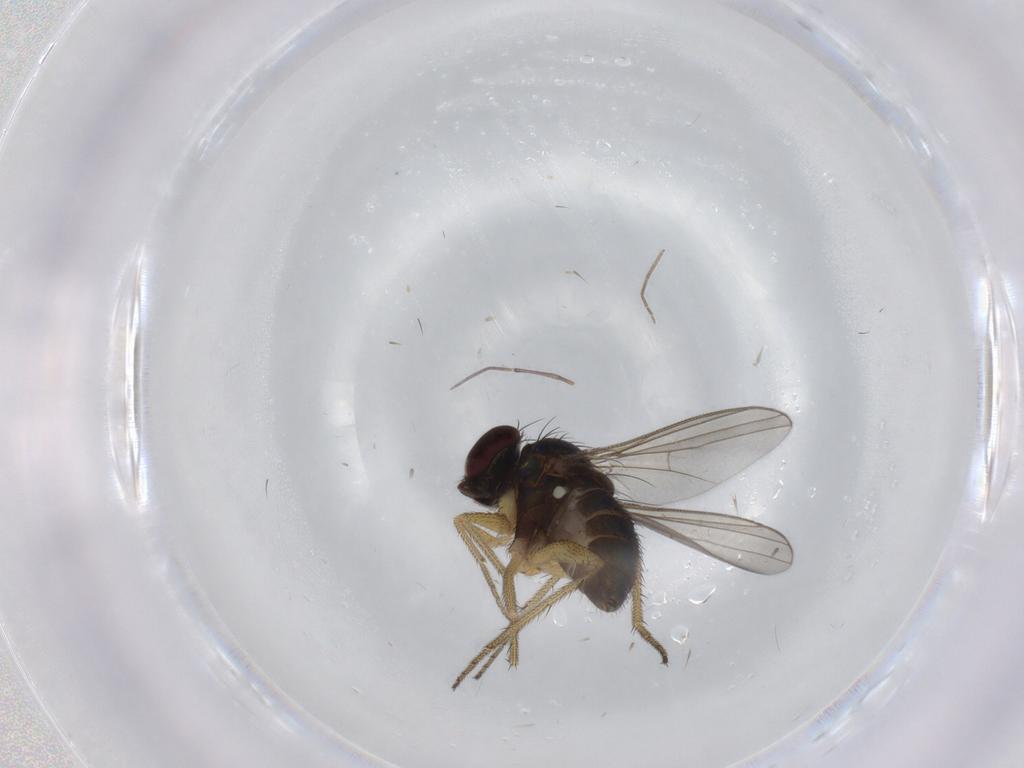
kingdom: Animalia
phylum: Arthropoda
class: Insecta
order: Diptera
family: Dolichopodidae
